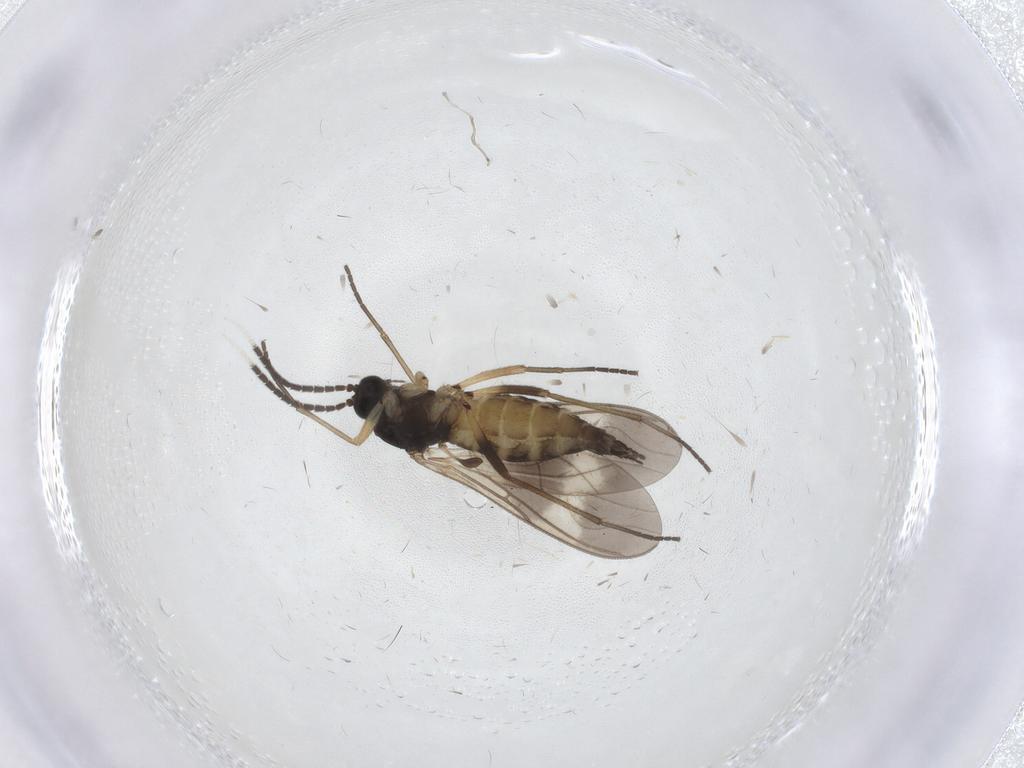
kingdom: Animalia
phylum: Arthropoda
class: Insecta
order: Diptera
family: Sciaridae
